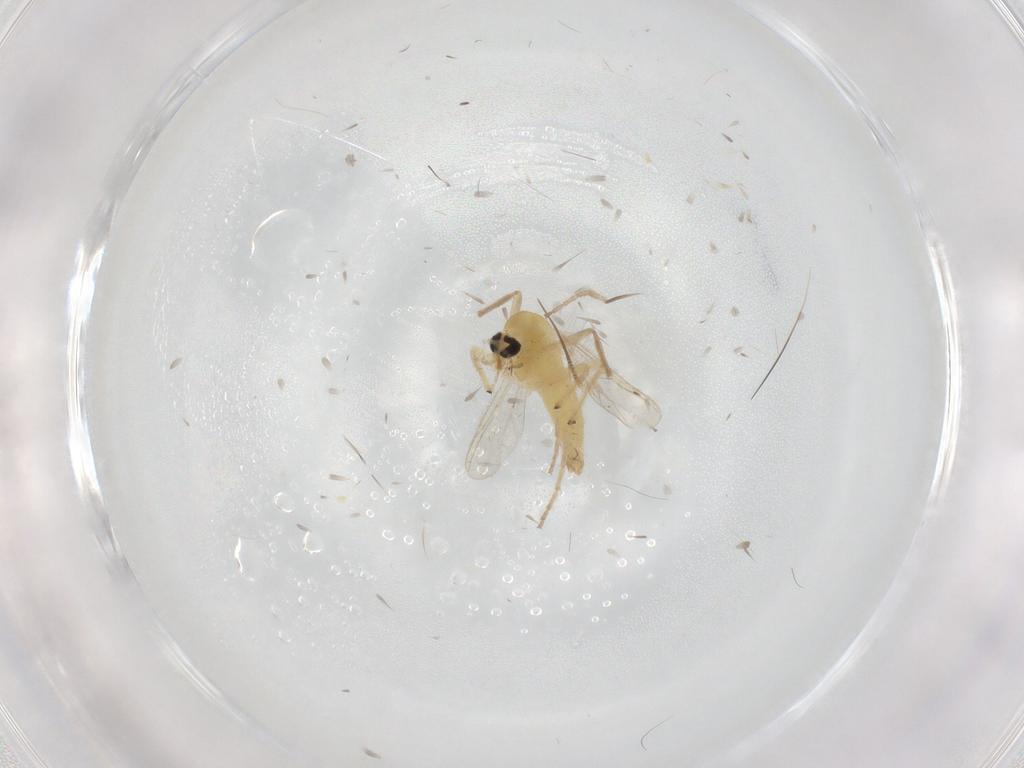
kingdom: Animalia
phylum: Arthropoda
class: Insecta
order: Diptera
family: Chironomidae
